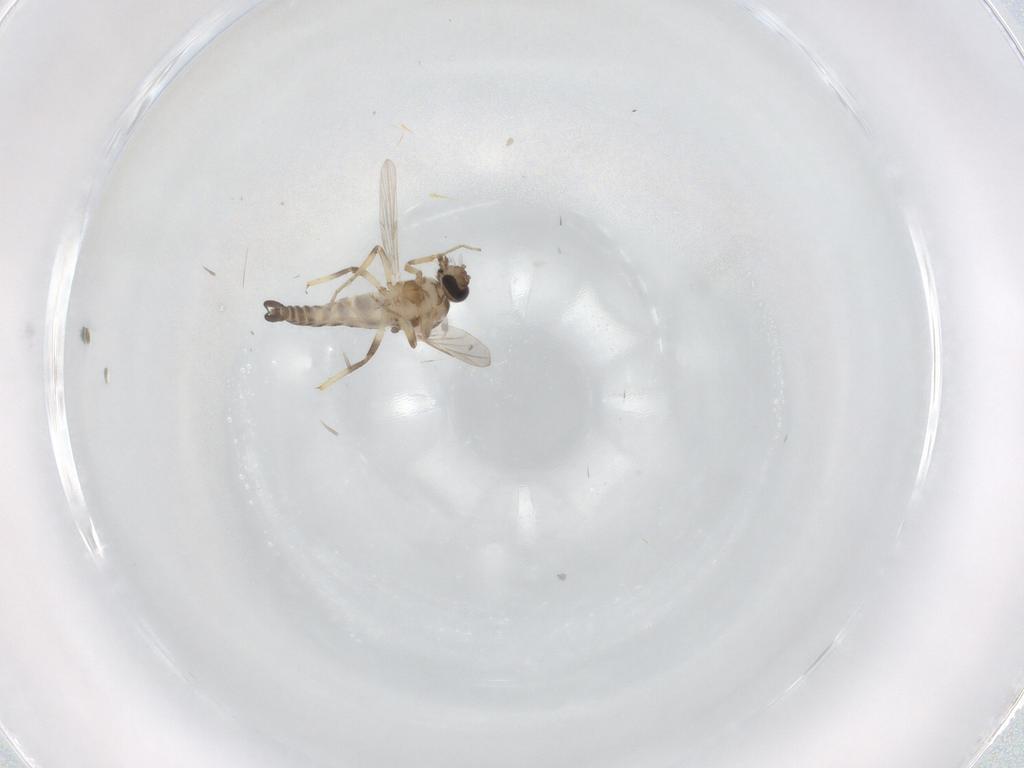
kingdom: Animalia
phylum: Arthropoda
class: Insecta
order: Diptera
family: Ceratopogonidae
